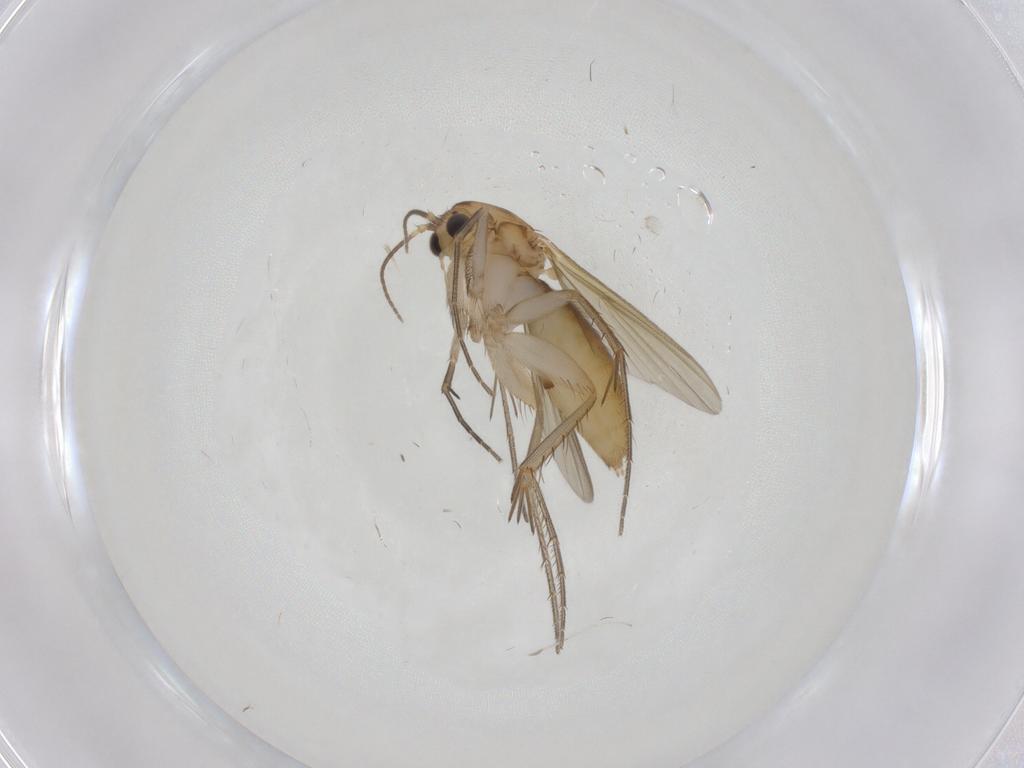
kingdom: Animalia
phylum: Arthropoda
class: Insecta
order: Diptera
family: Mycetophilidae
